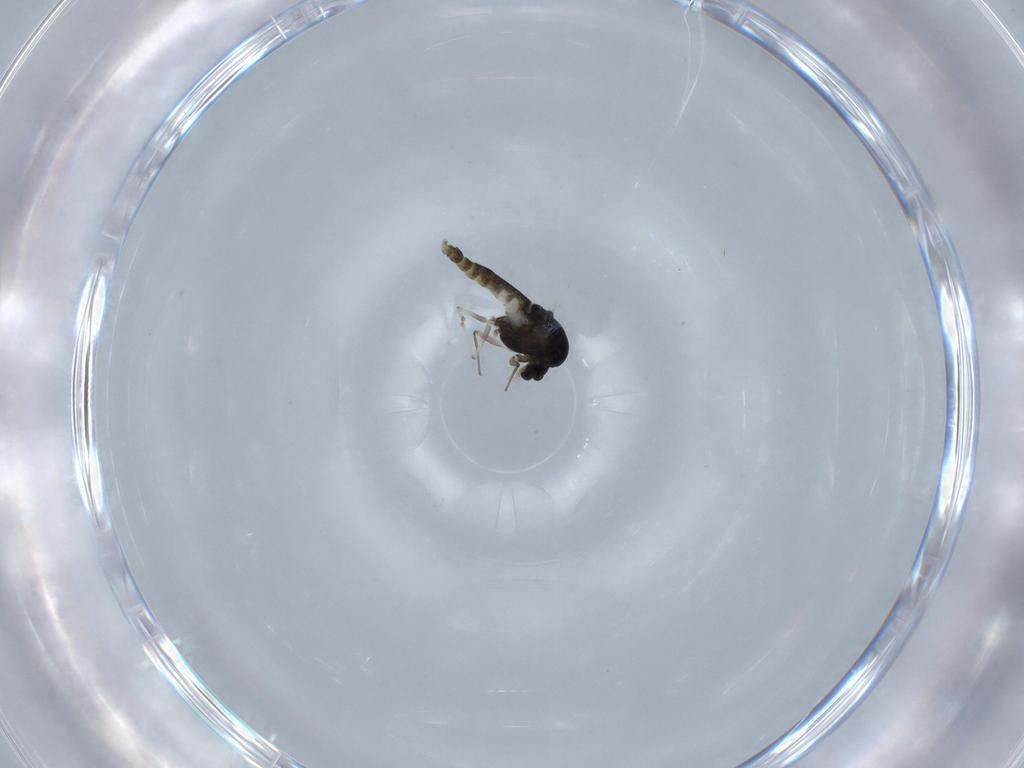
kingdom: Animalia
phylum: Arthropoda
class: Insecta
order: Diptera
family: Chironomidae
